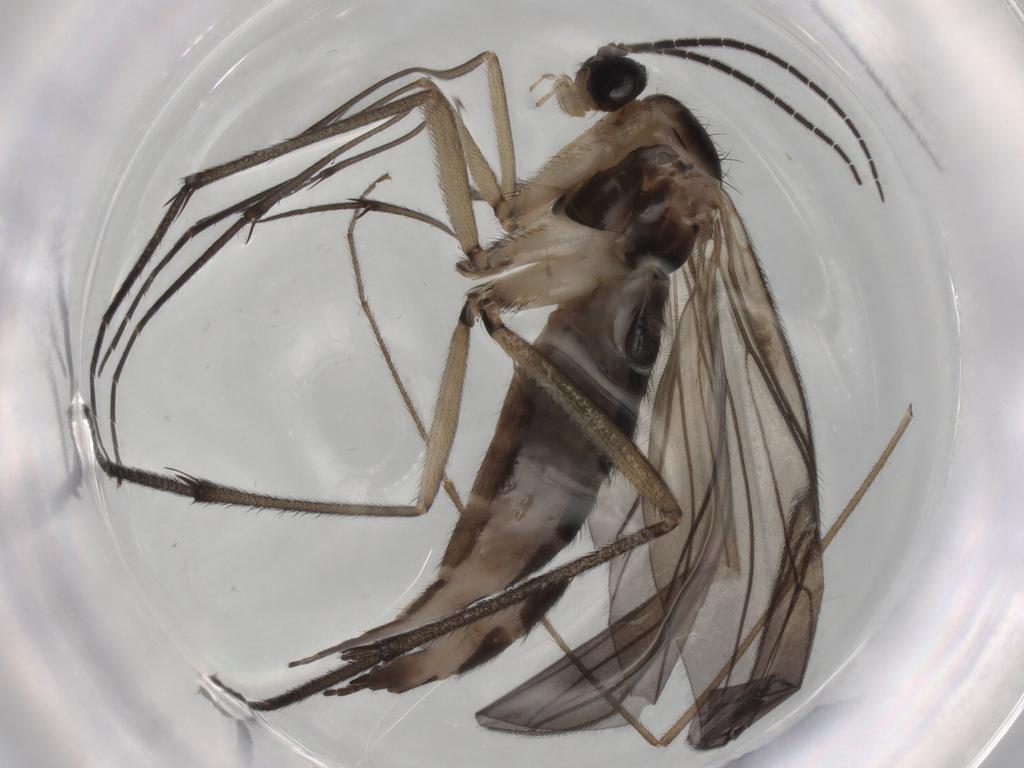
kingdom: Animalia
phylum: Arthropoda
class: Insecta
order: Diptera
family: Sciaridae
